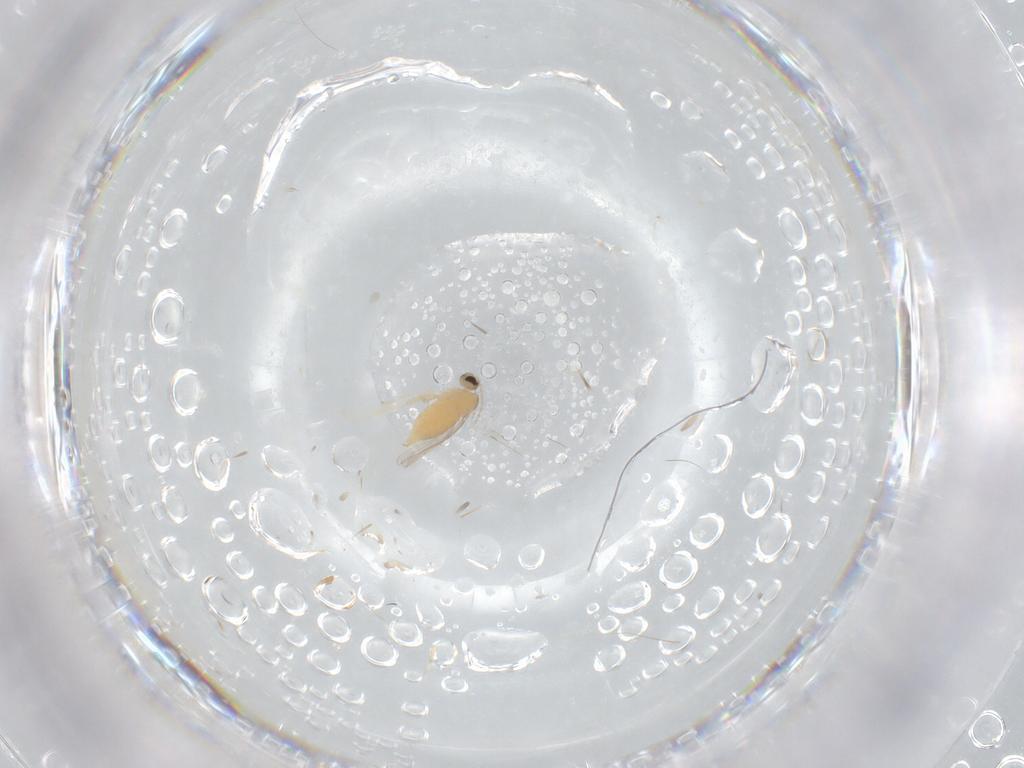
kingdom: Animalia
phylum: Arthropoda
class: Insecta
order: Diptera
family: Cecidomyiidae
